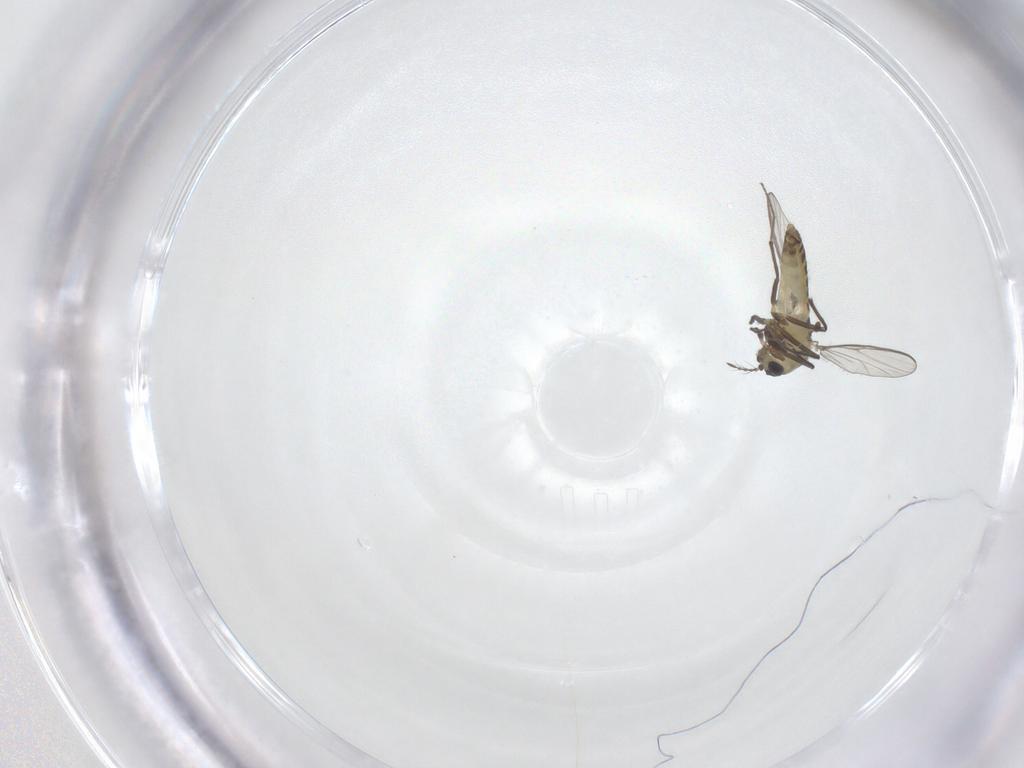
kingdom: Animalia
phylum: Arthropoda
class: Insecta
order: Diptera
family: Chironomidae
